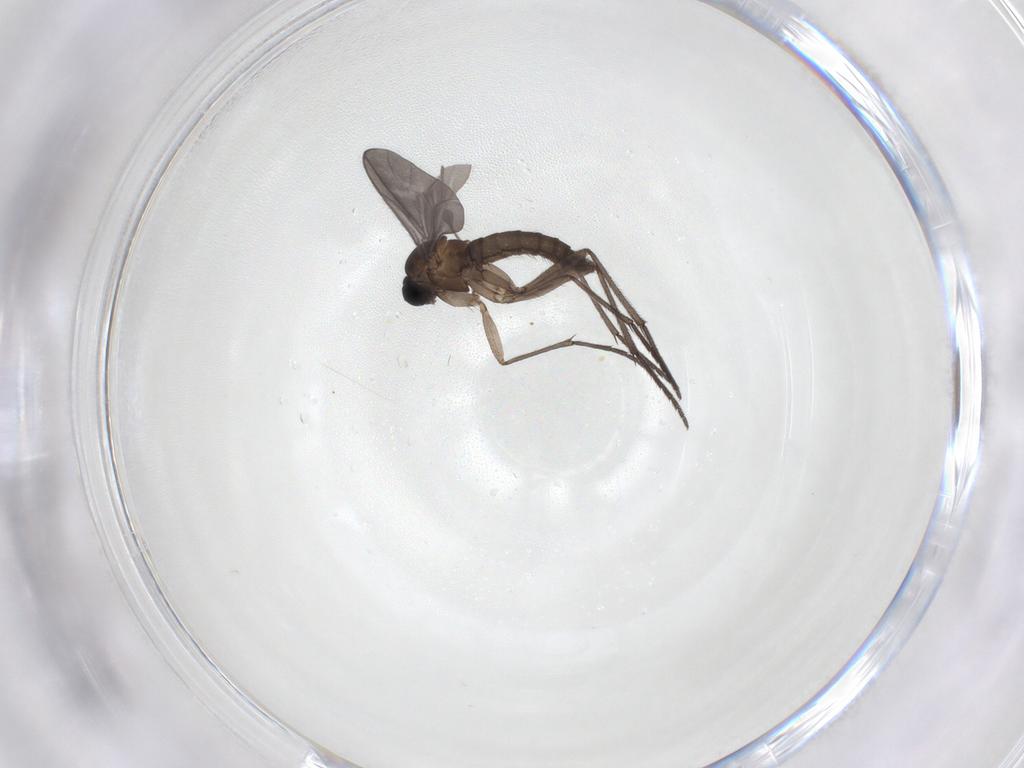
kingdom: Animalia
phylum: Arthropoda
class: Insecta
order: Diptera
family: Sciaridae
